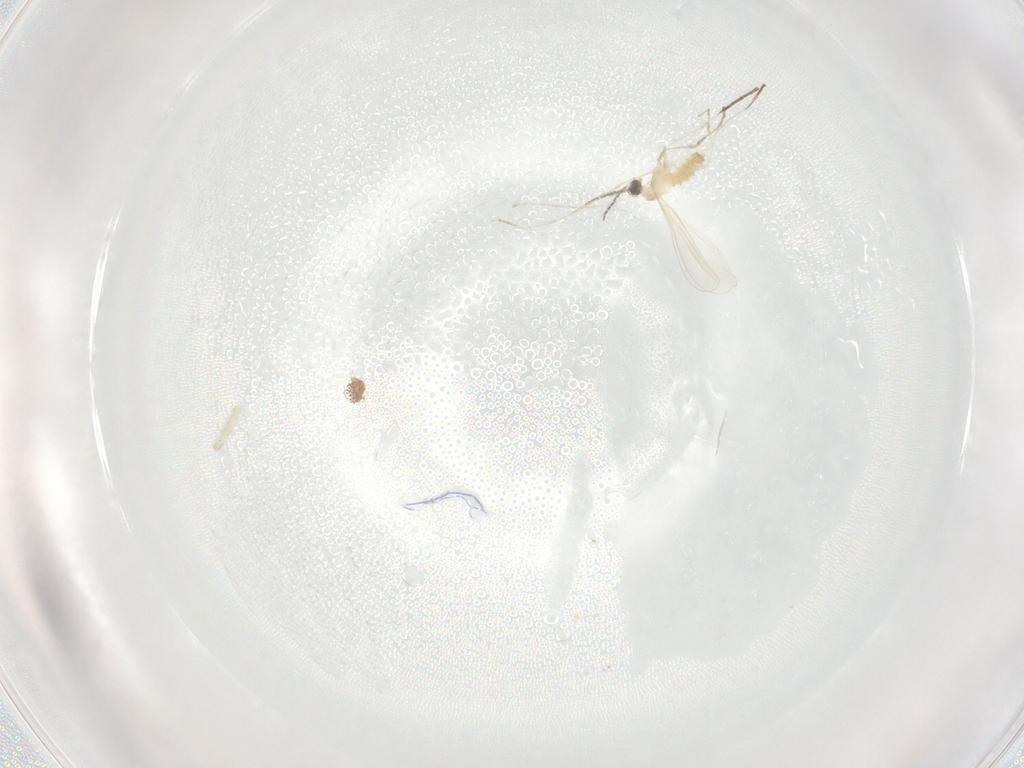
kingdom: Animalia
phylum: Arthropoda
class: Insecta
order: Diptera
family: Cecidomyiidae
